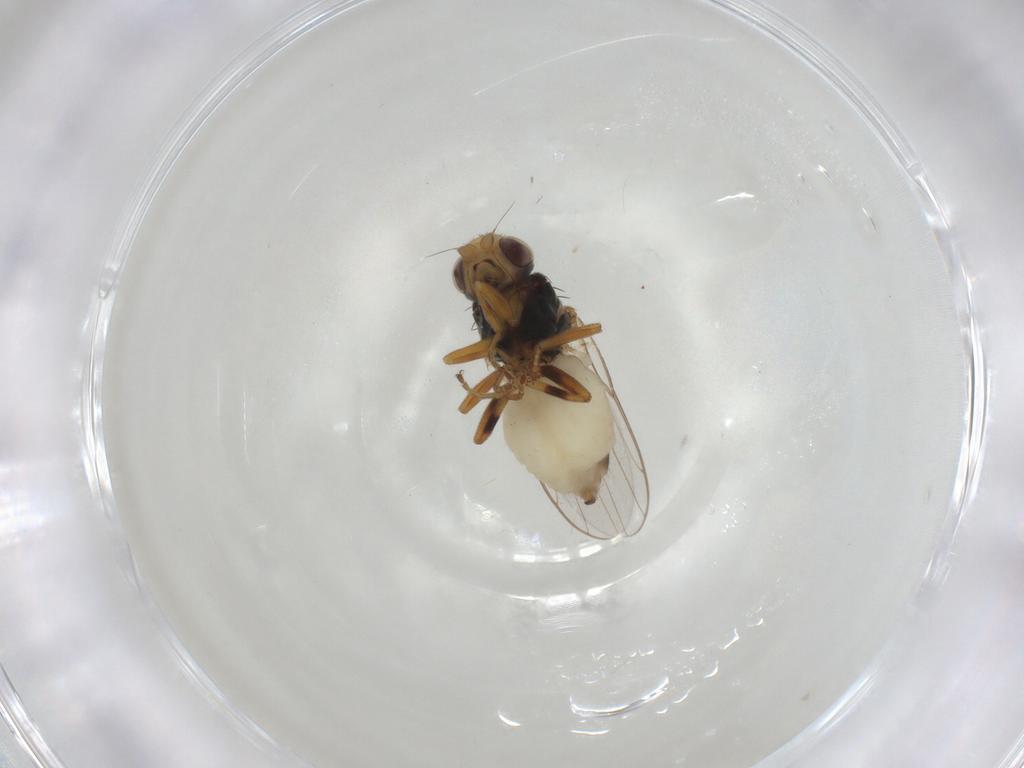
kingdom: Animalia
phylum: Arthropoda
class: Insecta
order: Diptera
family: Chloropidae
